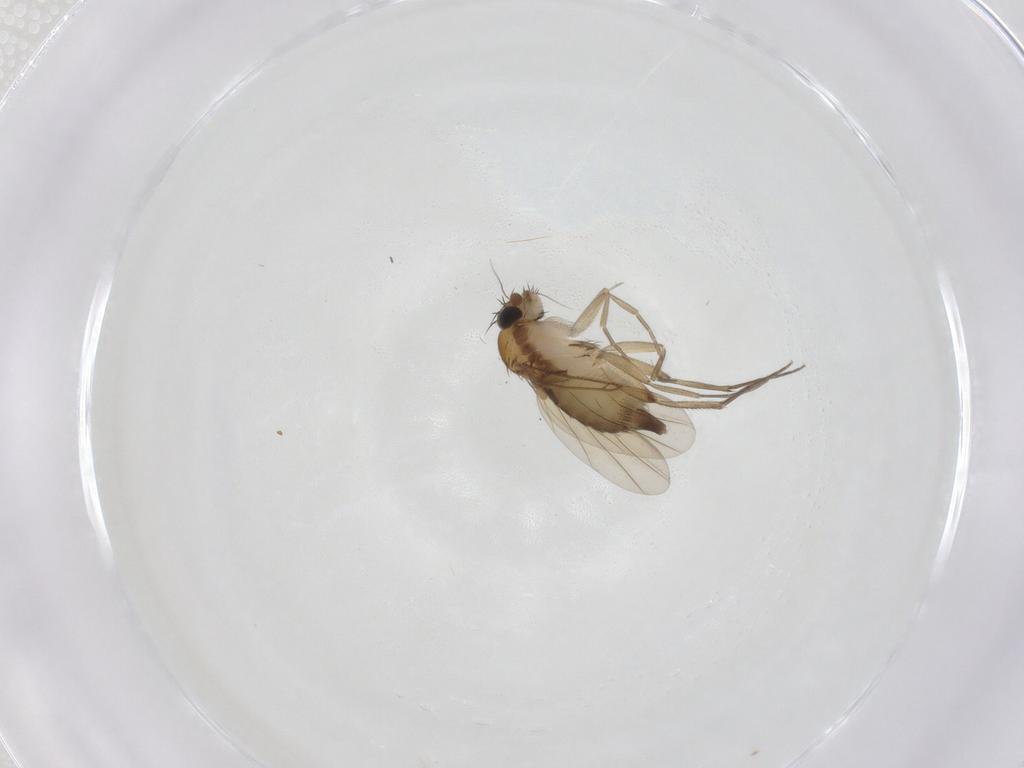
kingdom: Animalia
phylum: Arthropoda
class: Insecta
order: Diptera
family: Phoridae
